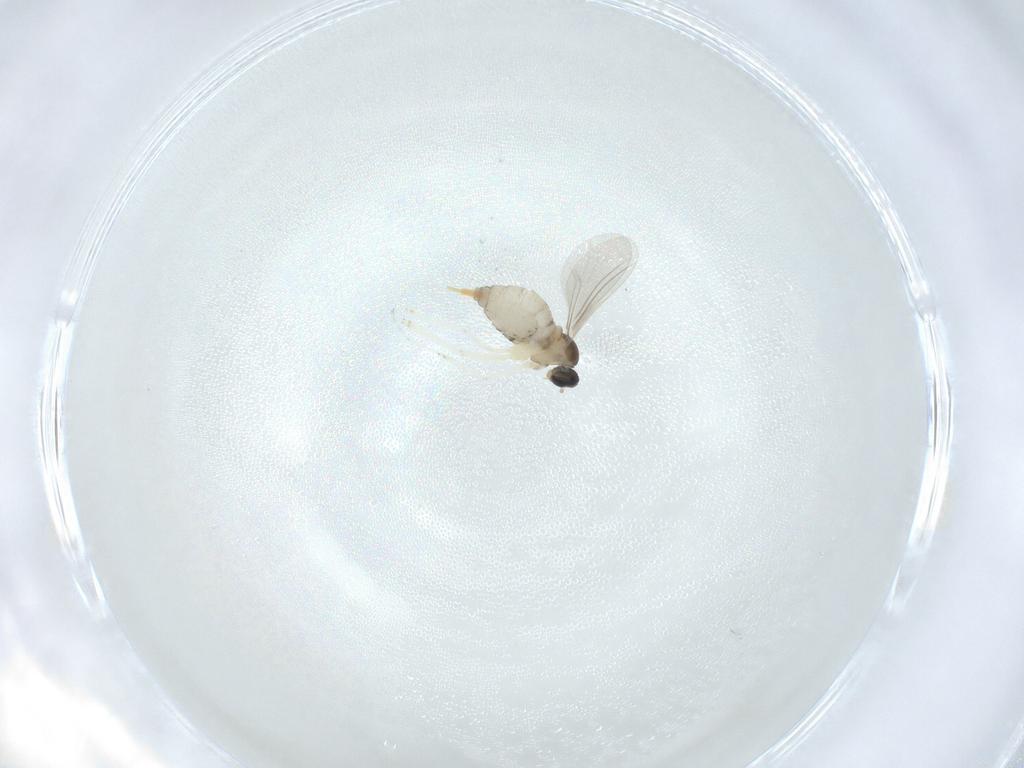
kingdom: Animalia
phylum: Arthropoda
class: Insecta
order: Diptera
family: Cecidomyiidae
